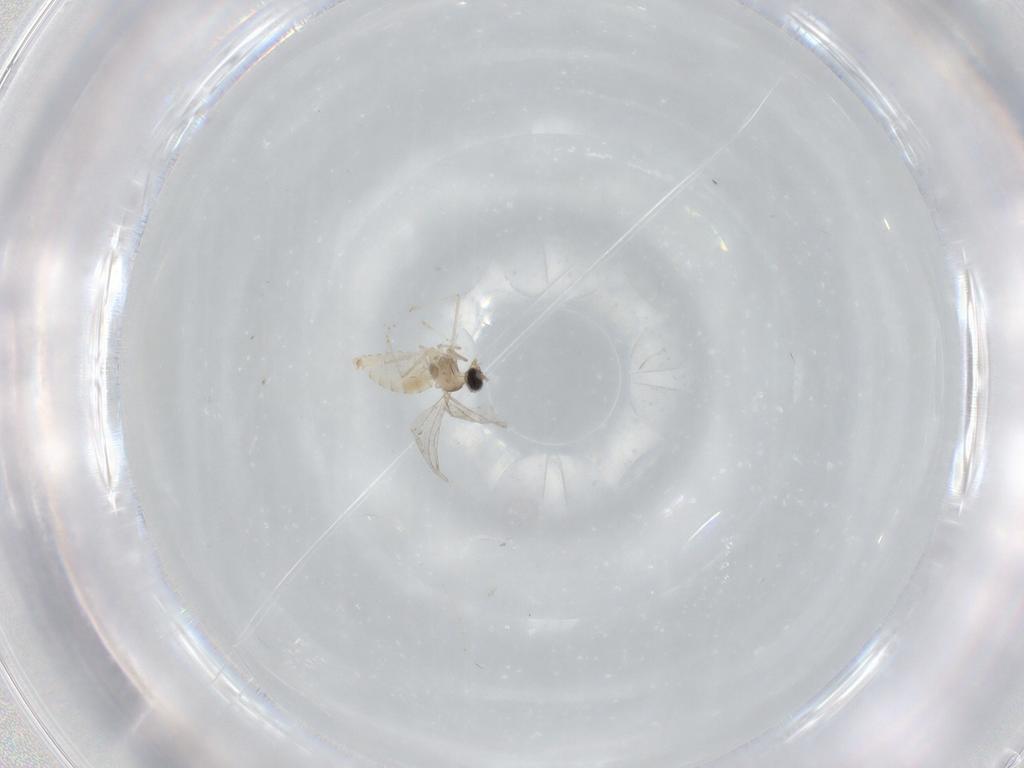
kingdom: Animalia
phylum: Arthropoda
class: Insecta
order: Diptera
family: Cecidomyiidae
